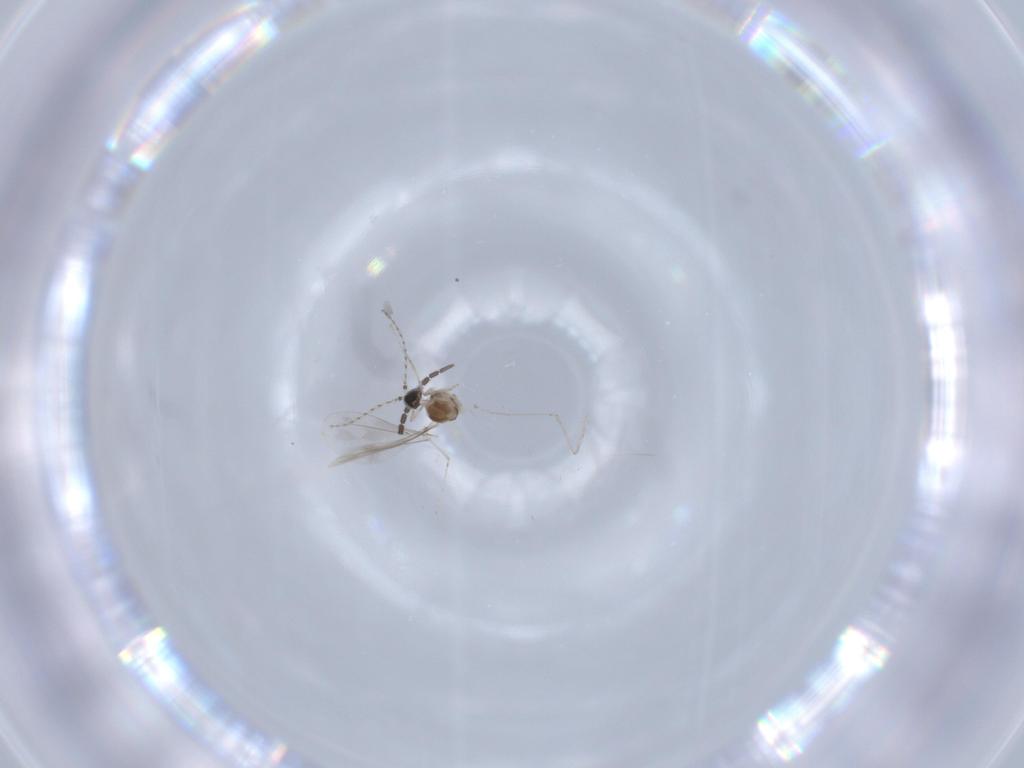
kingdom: Animalia
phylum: Arthropoda
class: Insecta
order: Diptera
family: Cecidomyiidae
